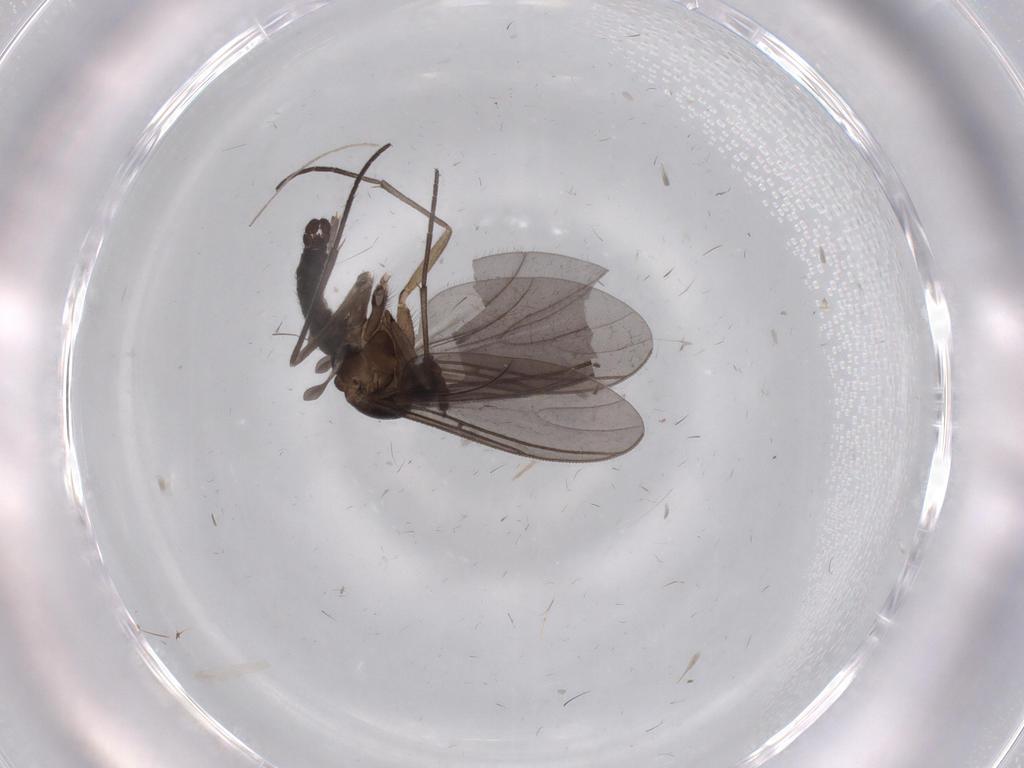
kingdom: Animalia
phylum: Arthropoda
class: Insecta
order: Diptera
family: Sciaridae
